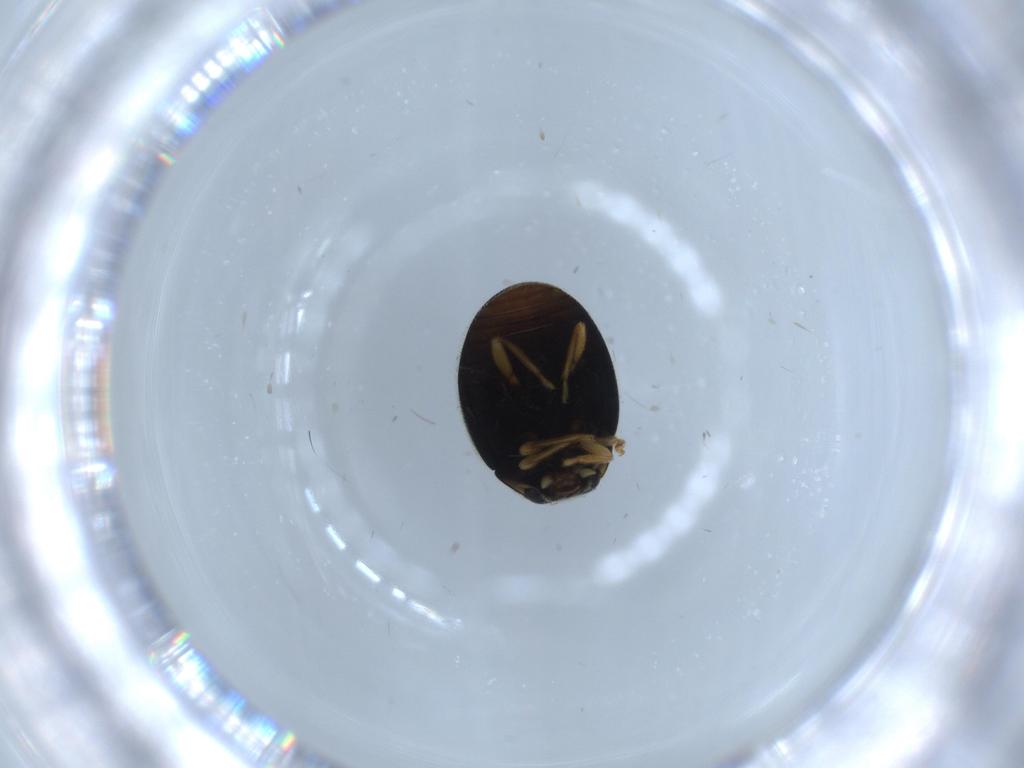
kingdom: Animalia
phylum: Arthropoda
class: Insecta
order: Coleoptera
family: Coccinellidae
